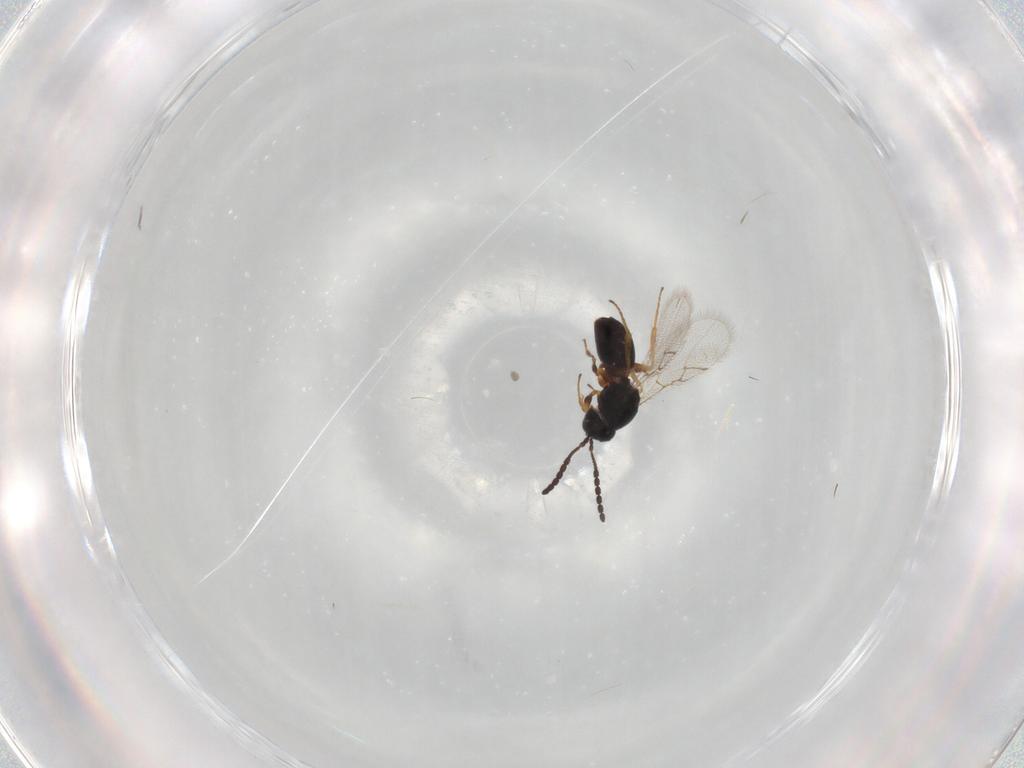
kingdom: Animalia
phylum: Arthropoda
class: Insecta
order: Hymenoptera
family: Figitidae
